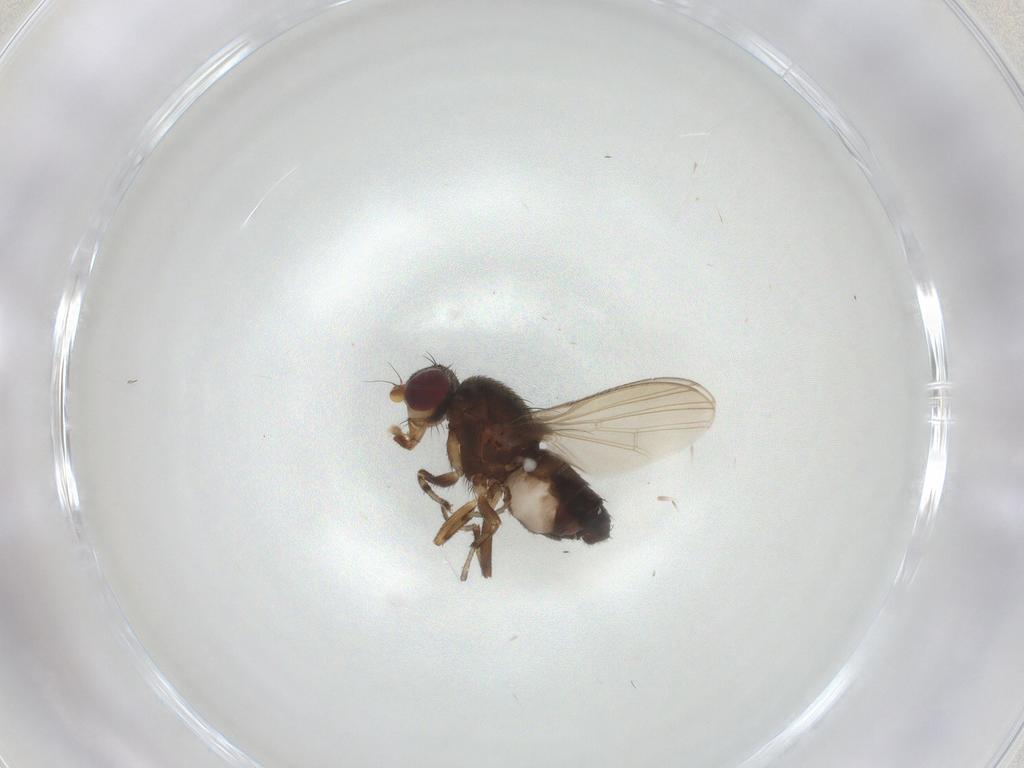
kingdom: Animalia
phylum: Arthropoda
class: Insecta
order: Diptera
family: Heleomyzidae
